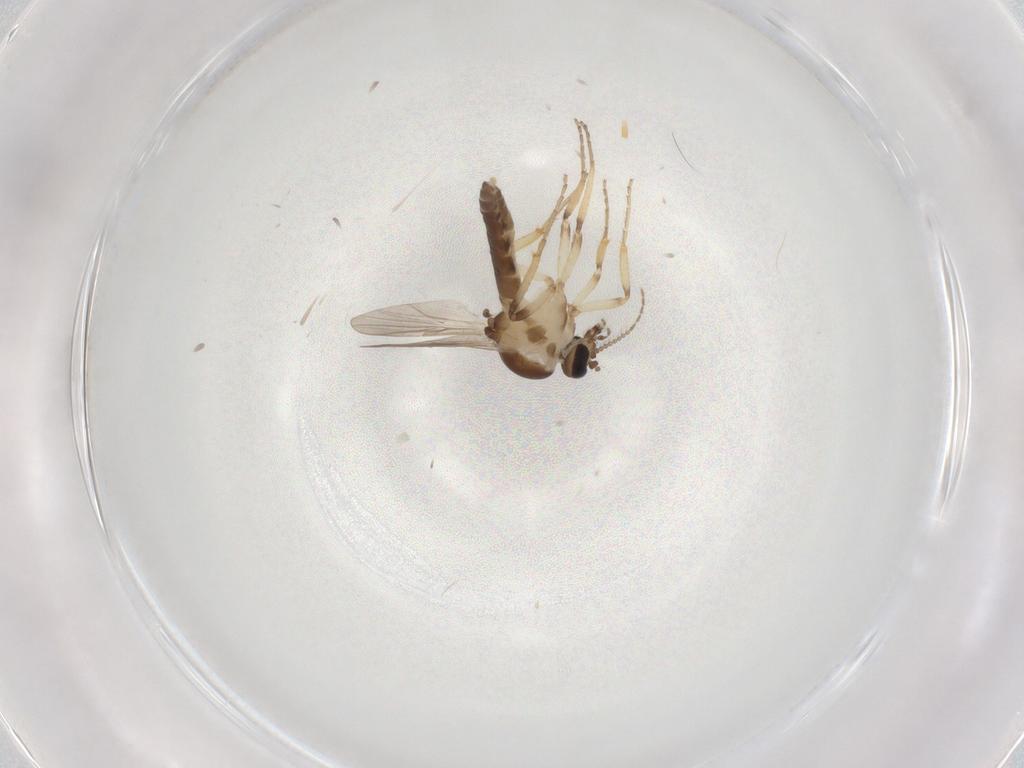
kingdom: Animalia
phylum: Arthropoda
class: Insecta
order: Diptera
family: Ceratopogonidae
